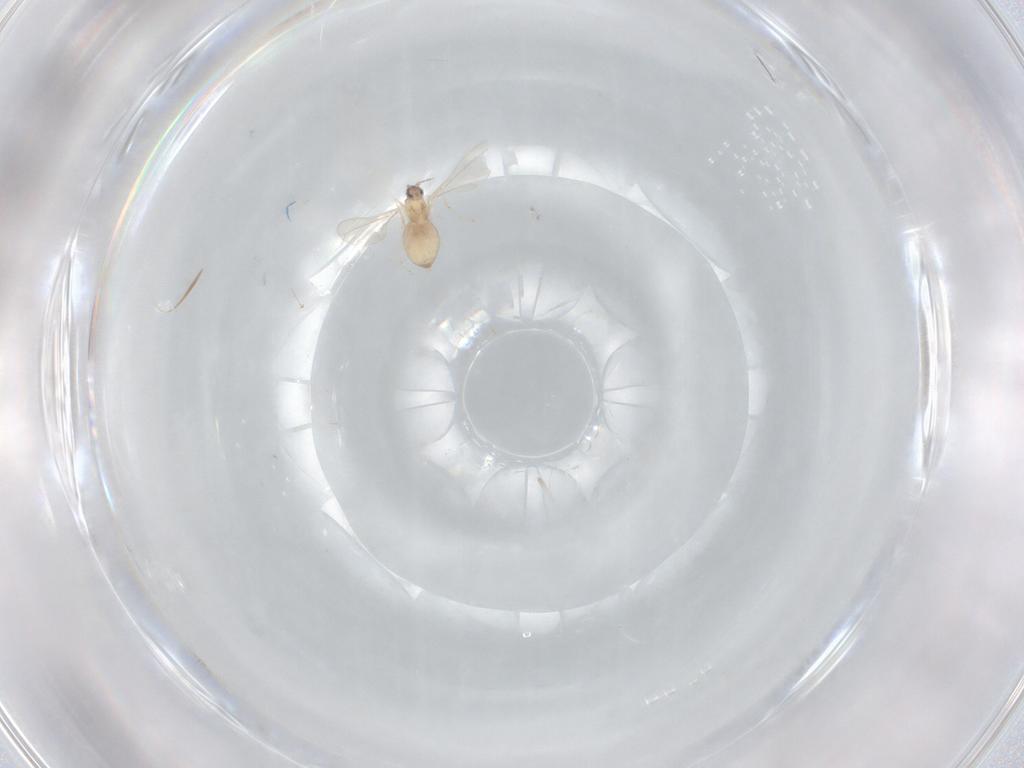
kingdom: Animalia
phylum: Arthropoda
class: Insecta
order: Diptera
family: Cecidomyiidae
